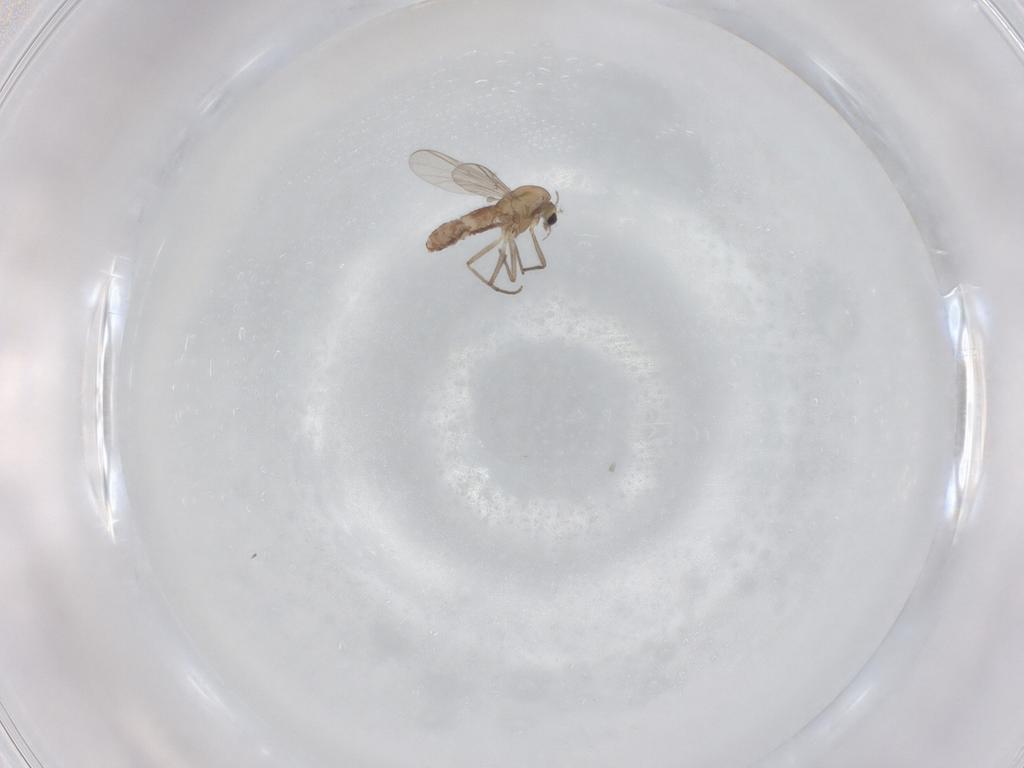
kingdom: Animalia
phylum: Arthropoda
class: Insecta
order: Diptera
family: Chironomidae
